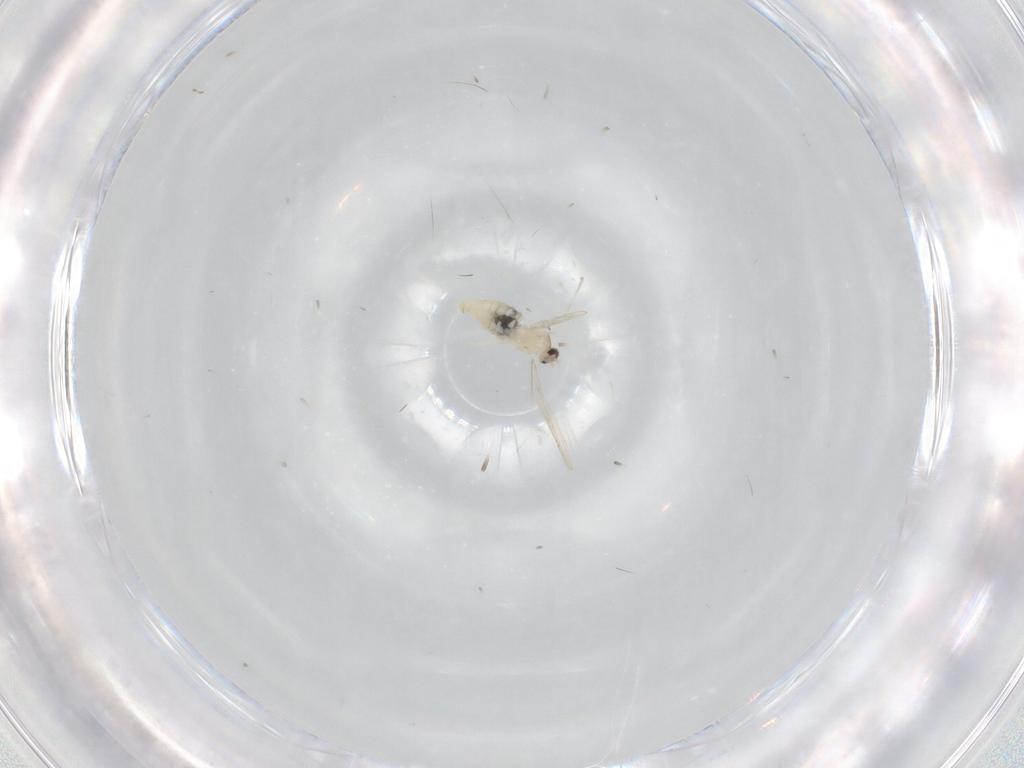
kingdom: Animalia
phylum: Arthropoda
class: Insecta
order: Diptera
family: Cecidomyiidae
